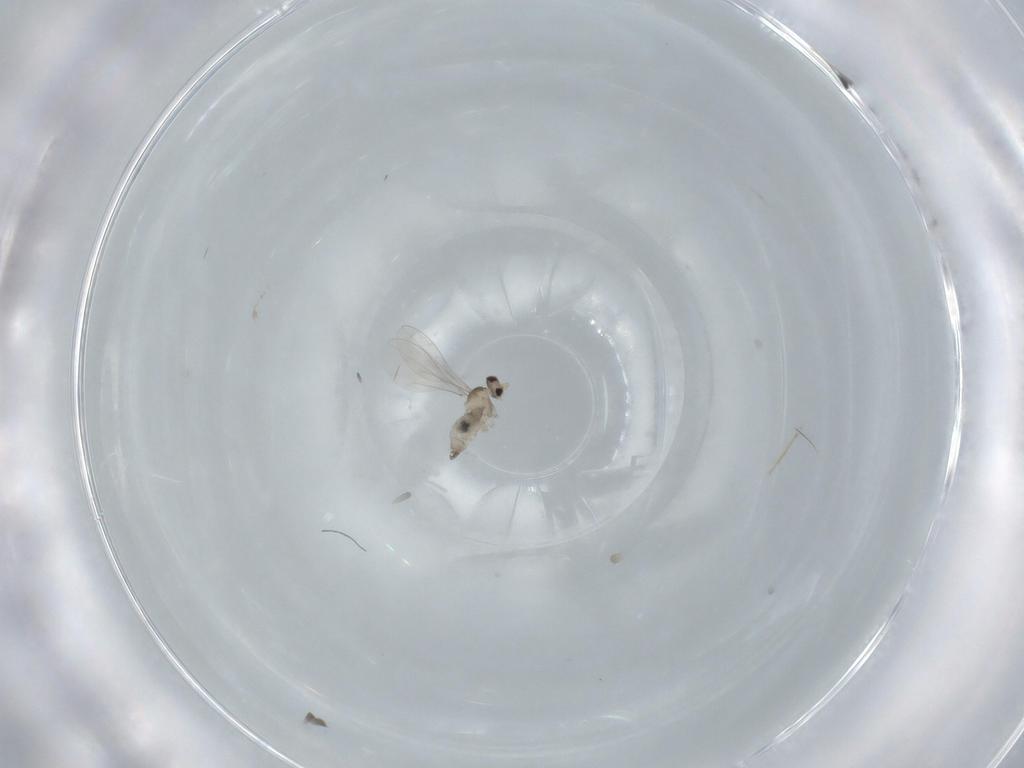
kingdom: Animalia
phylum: Arthropoda
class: Insecta
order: Diptera
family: Cecidomyiidae
